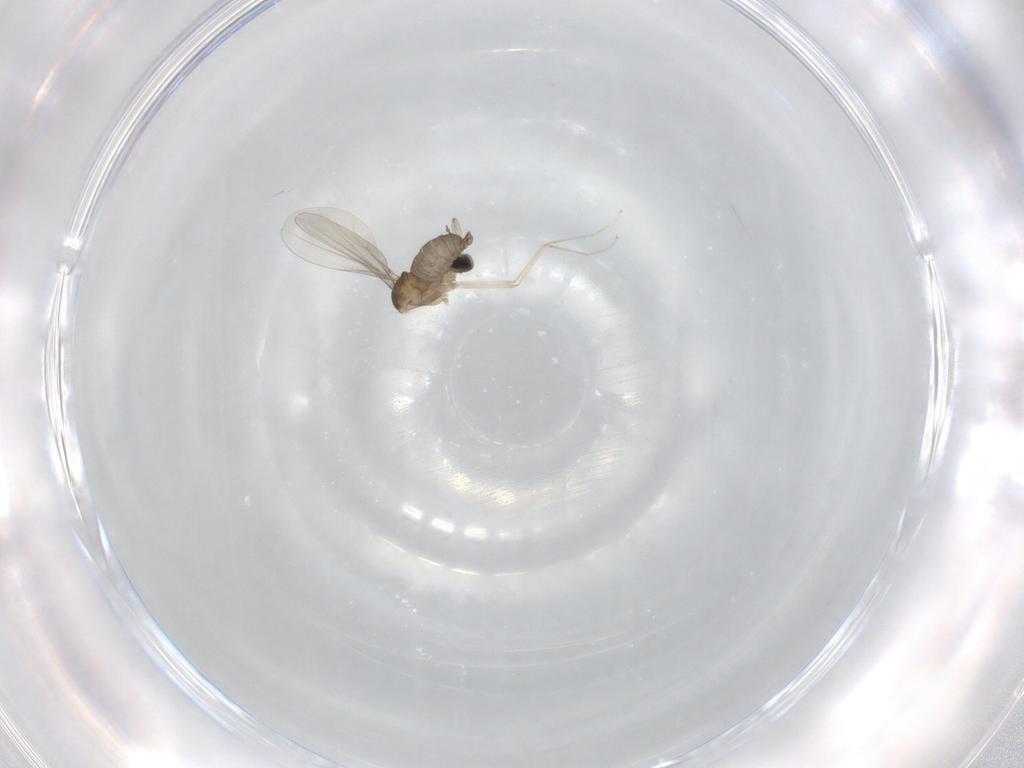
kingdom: Animalia
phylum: Arthropoda
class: Insecta
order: Diptera
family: Cecidomyiidae
